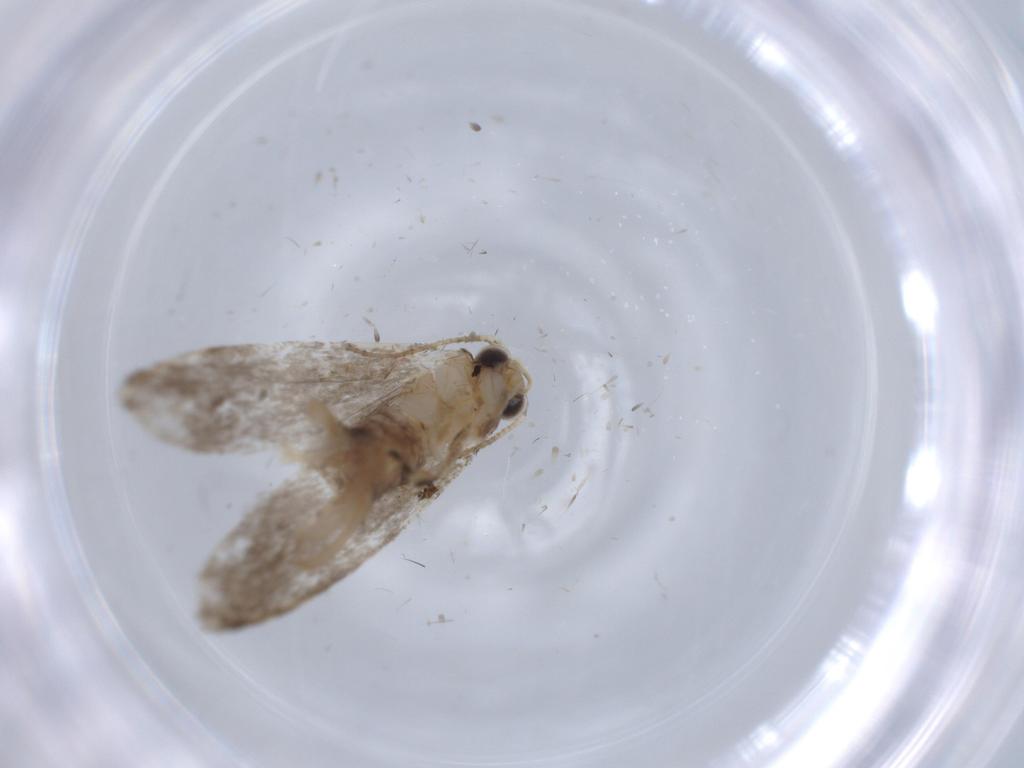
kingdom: Animalia
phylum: Arthropoda
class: Insecta
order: Lepidoptera
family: Tineidae
